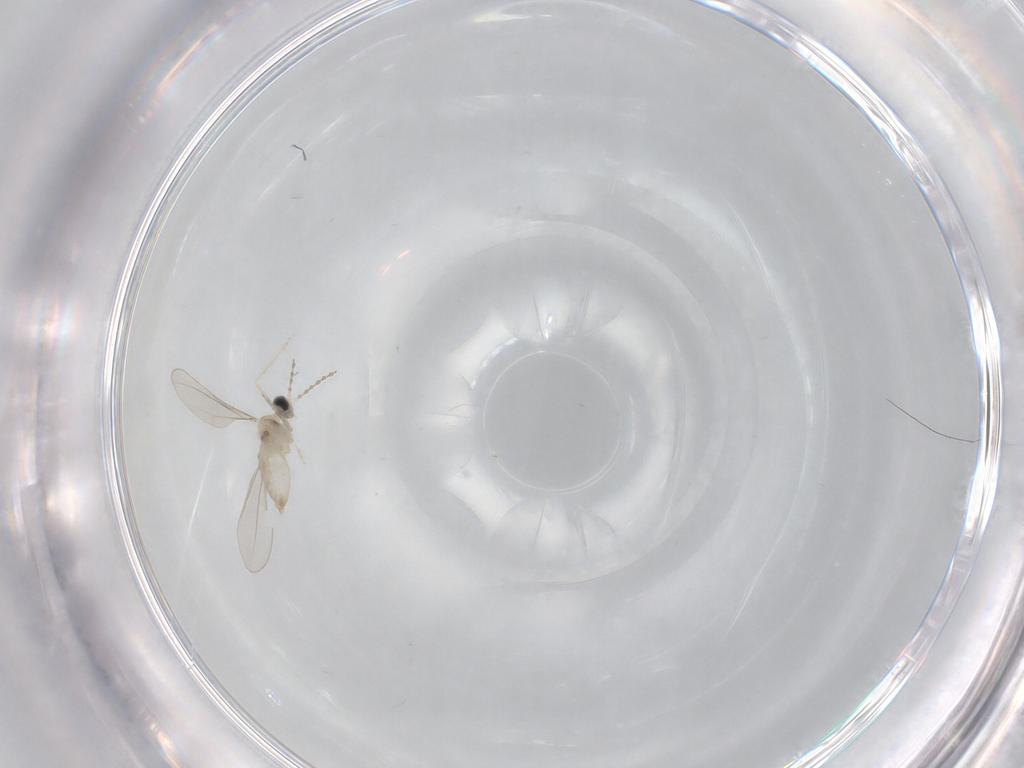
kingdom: Animalia
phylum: Arthropoda
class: Insecta
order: Diptera
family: Cecidomyiidae
